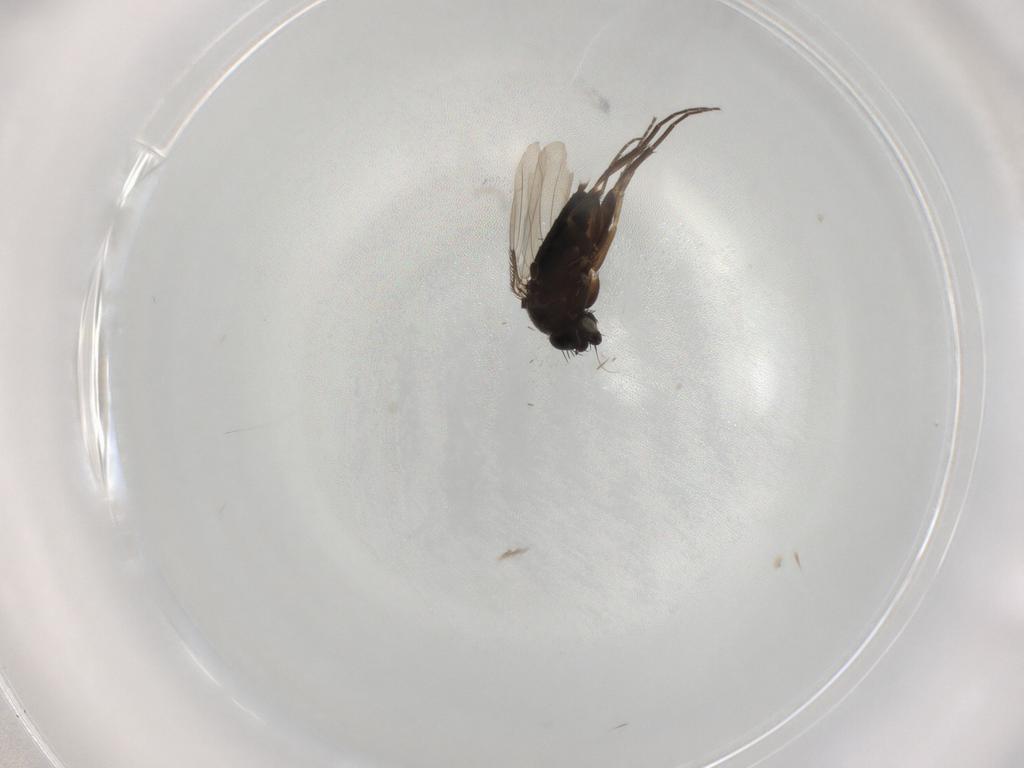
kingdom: Animalia
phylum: Arthropoda
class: Insecta
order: Diptera
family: Phoridae
